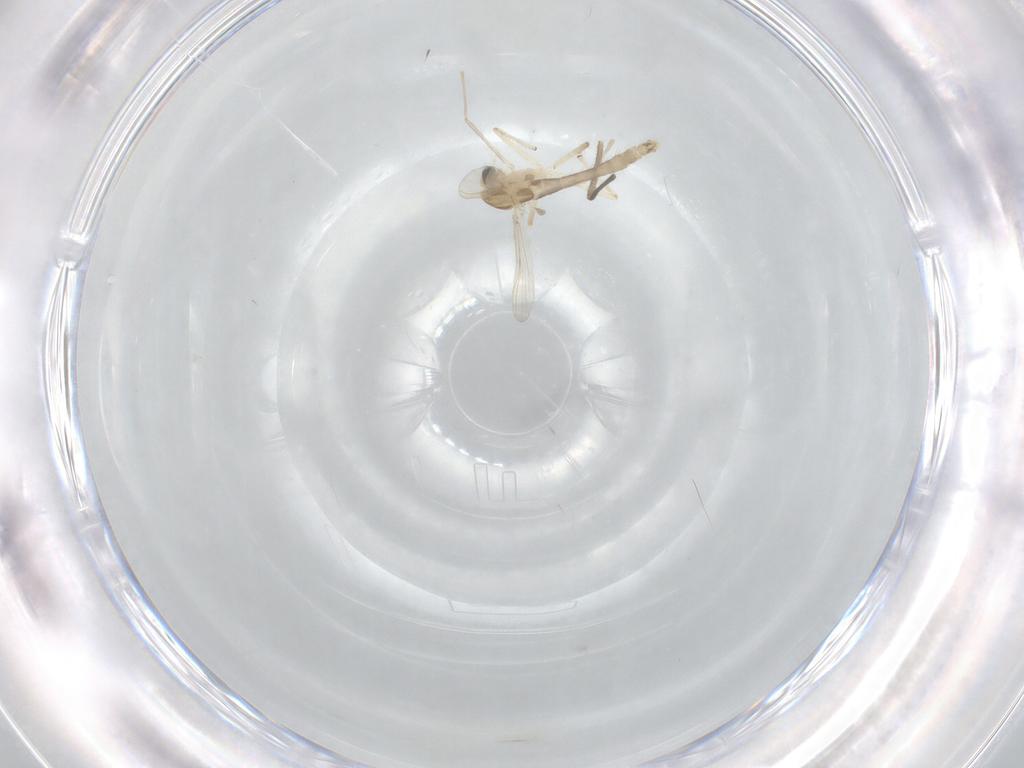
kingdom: Animalia
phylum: Arthropoda
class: Insecta
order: Diptera
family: Chironomidae
